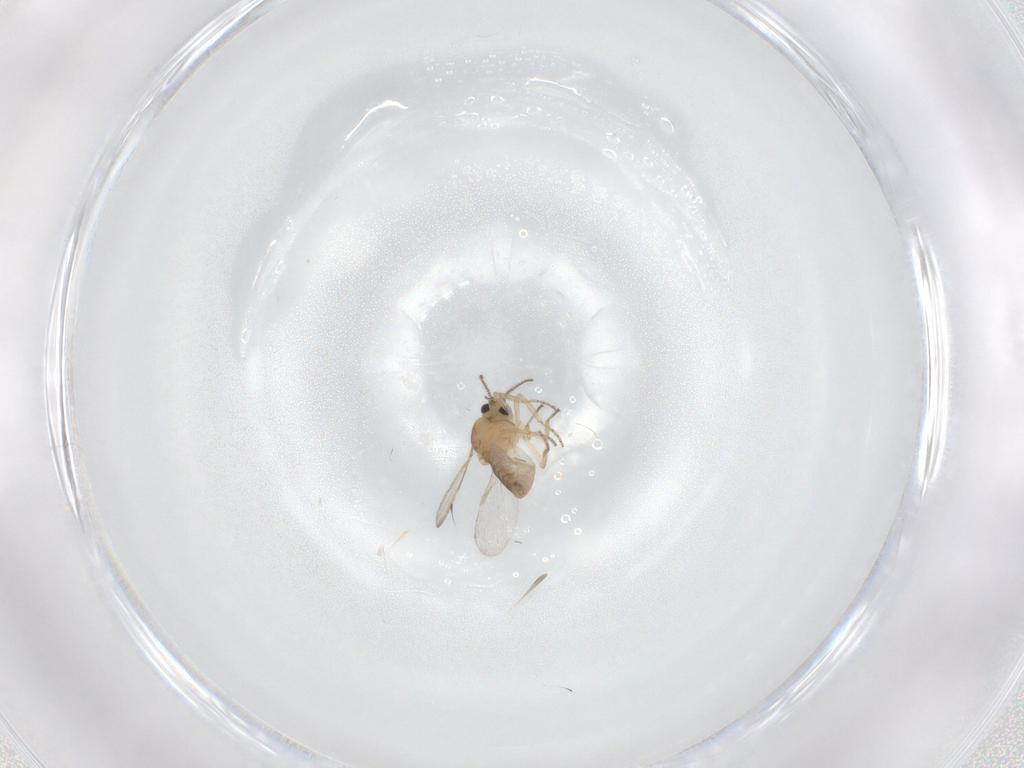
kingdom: Animalia
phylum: Arthropoda
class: Insecta
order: Diptera
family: Ceratopogonidae
